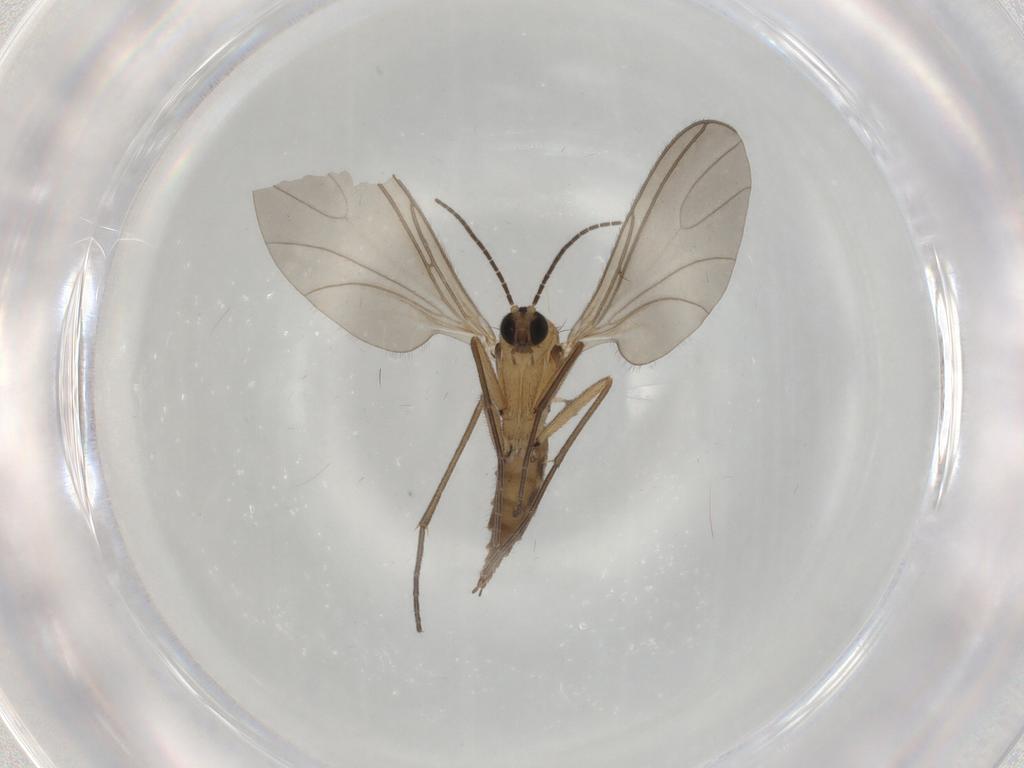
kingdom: Animalia
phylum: Arthropoda
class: Insecta
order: Diptera
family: Sciaridae
